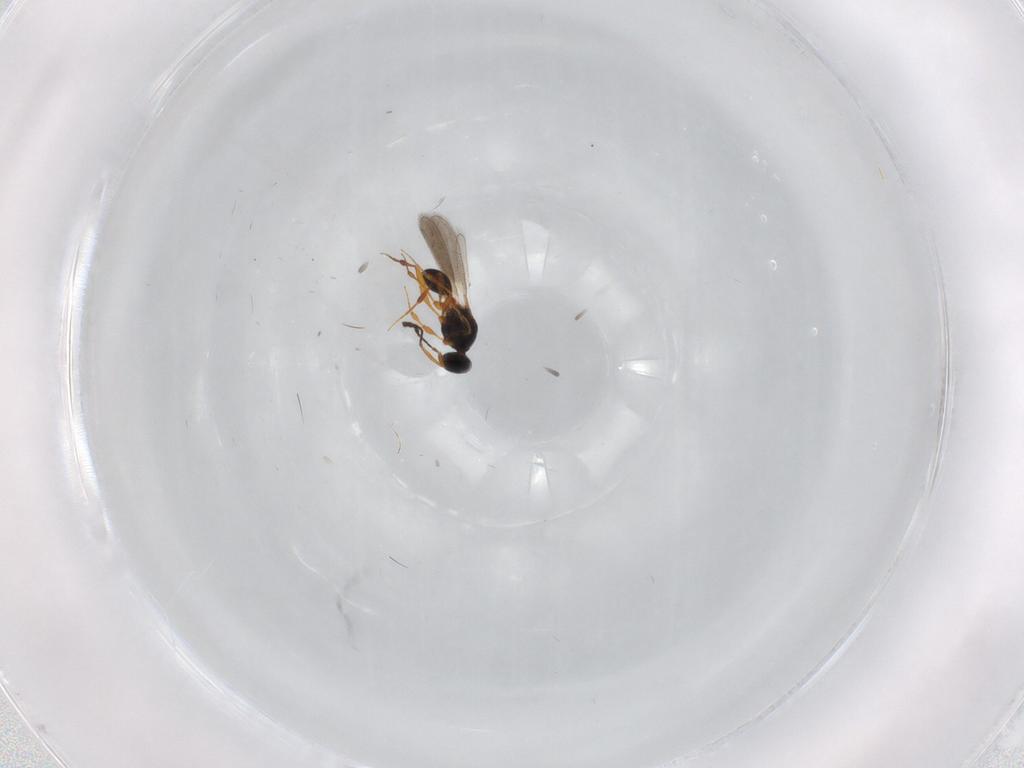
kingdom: Animalia
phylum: Arthropoda
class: Insecta
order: Hymenoptera
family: Platygastridae
